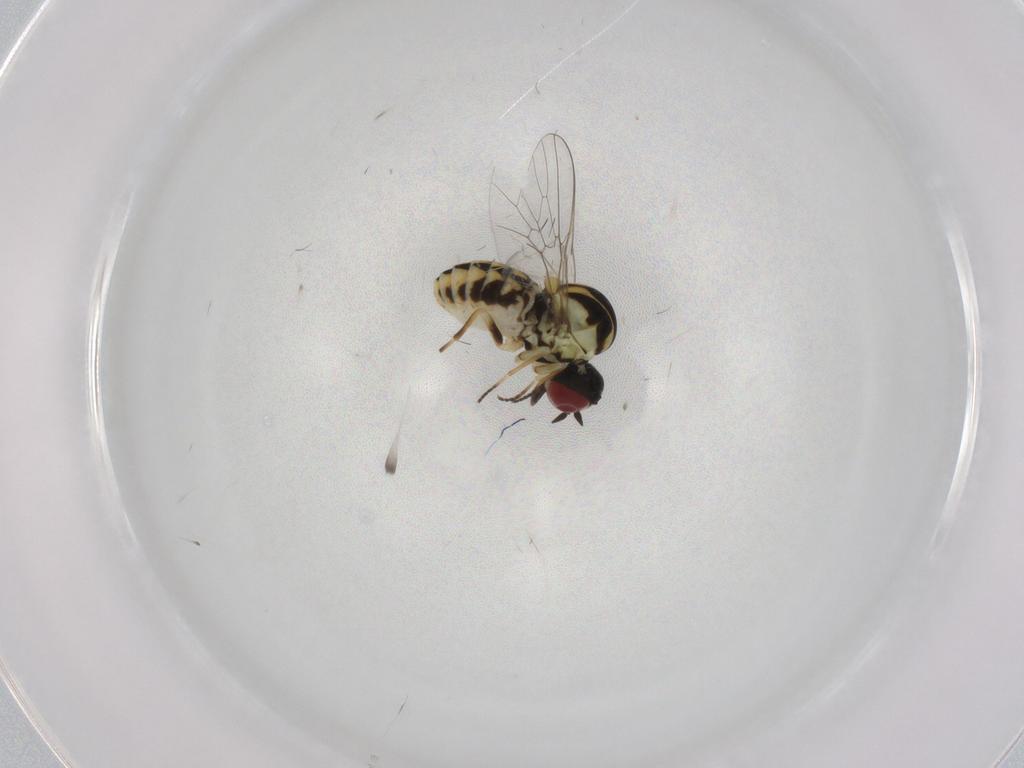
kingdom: Animalia
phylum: Arthropoda
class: Insecta
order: Diptera
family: Bombyliidae
